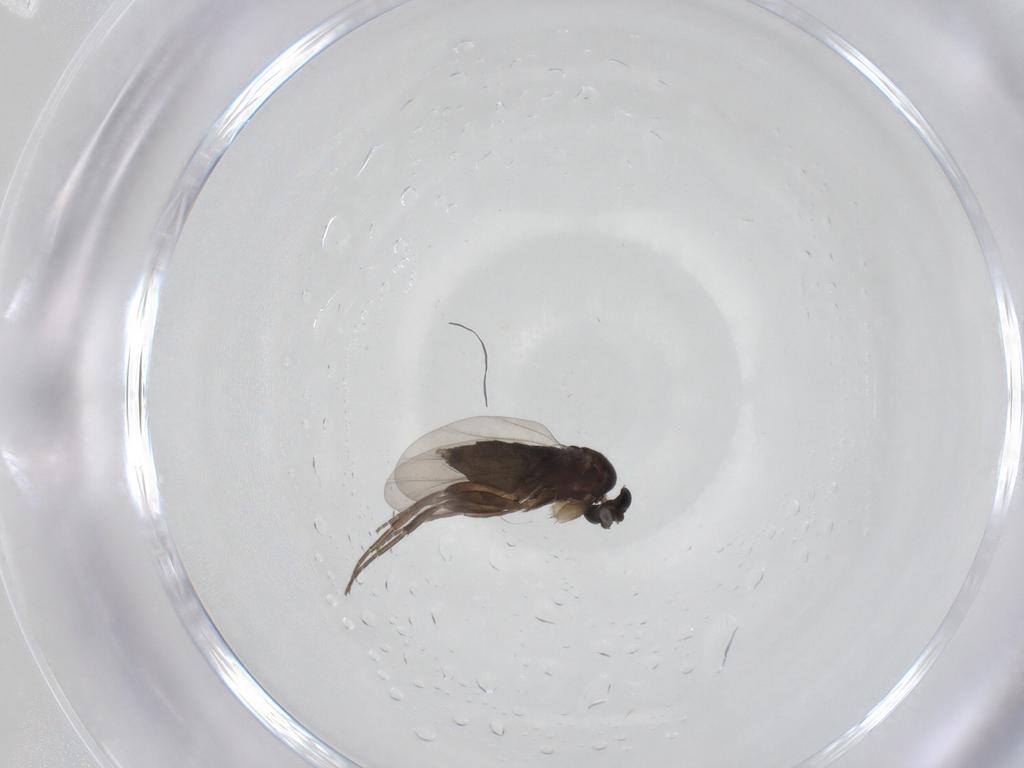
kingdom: Animalia
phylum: Arthropoda
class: Insecta
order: Diptera
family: Phoridae
